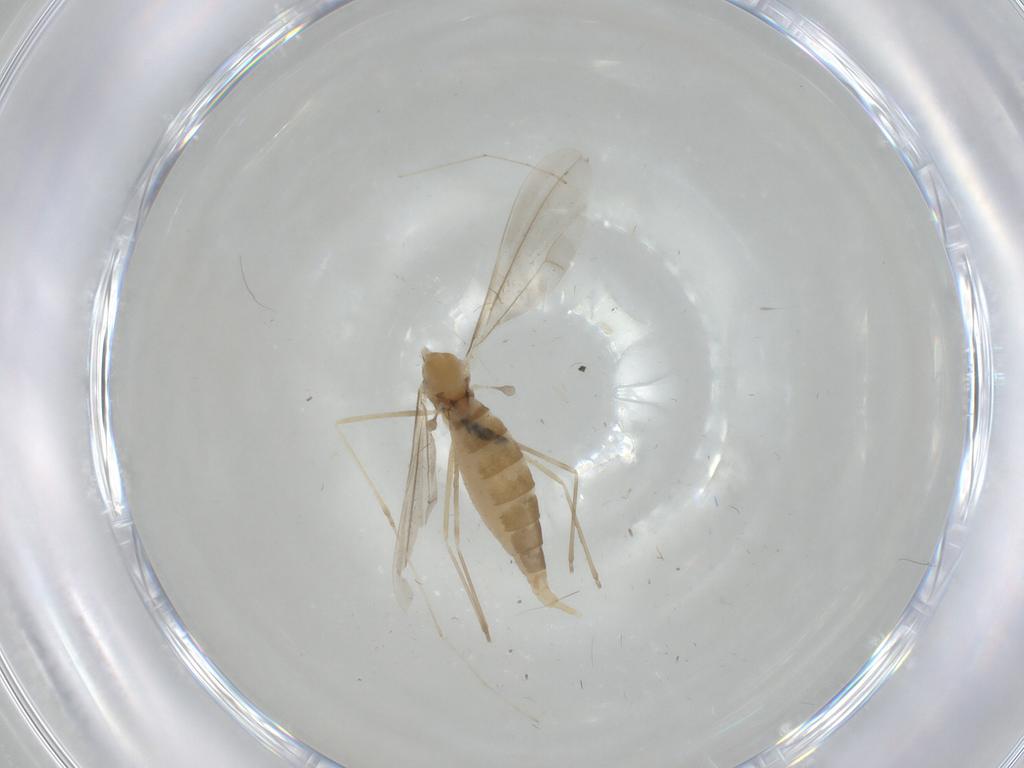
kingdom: Animalia
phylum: Arthropoda
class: Insecta
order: Diptera
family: Cecidomyiidae
